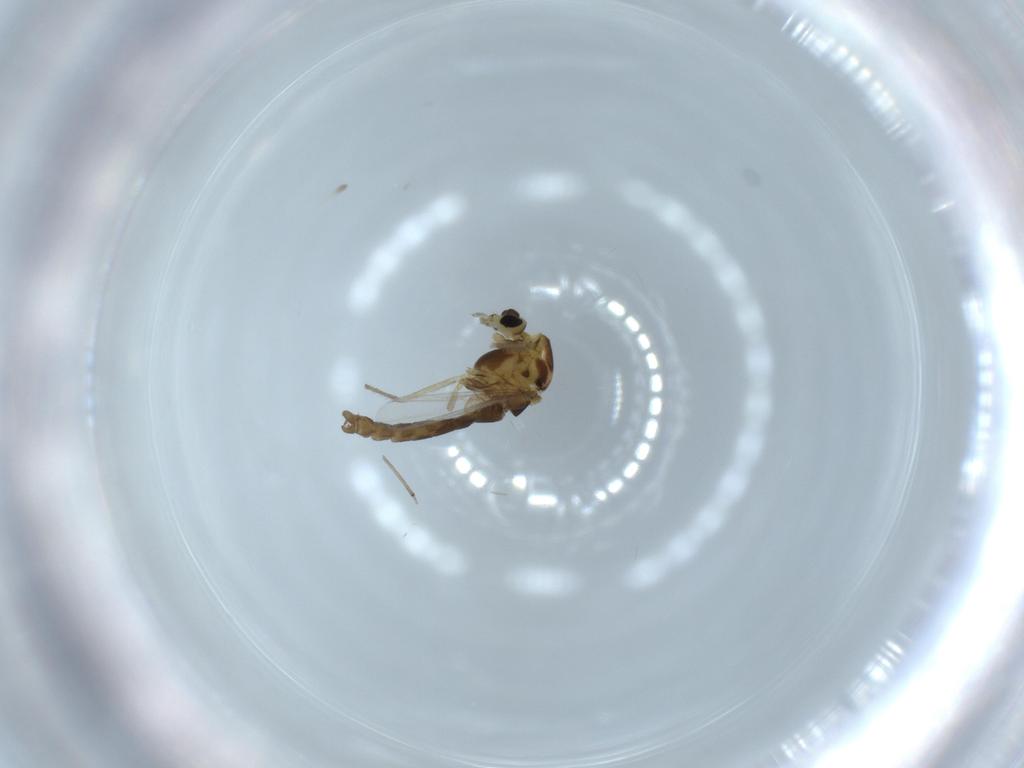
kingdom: Animalia
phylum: Arthropoda
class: Insecta
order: Diptera
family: Chironomidae
